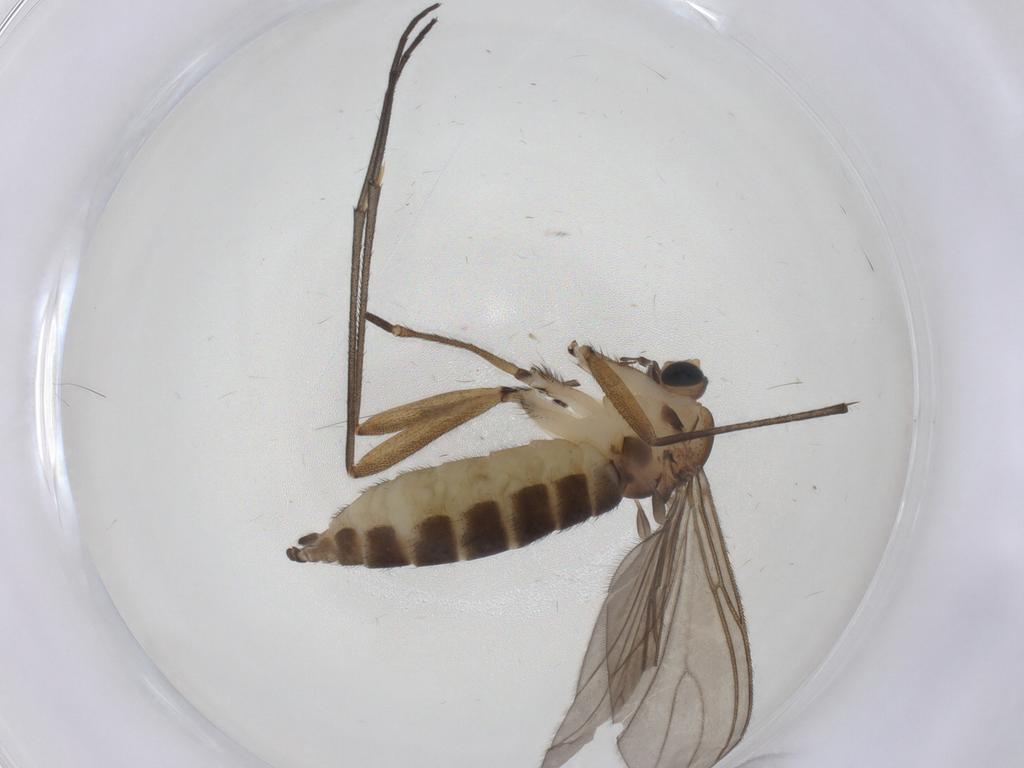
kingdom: Animalia
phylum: Arthropoda
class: Insecta
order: Diptera
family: Sciaridae
